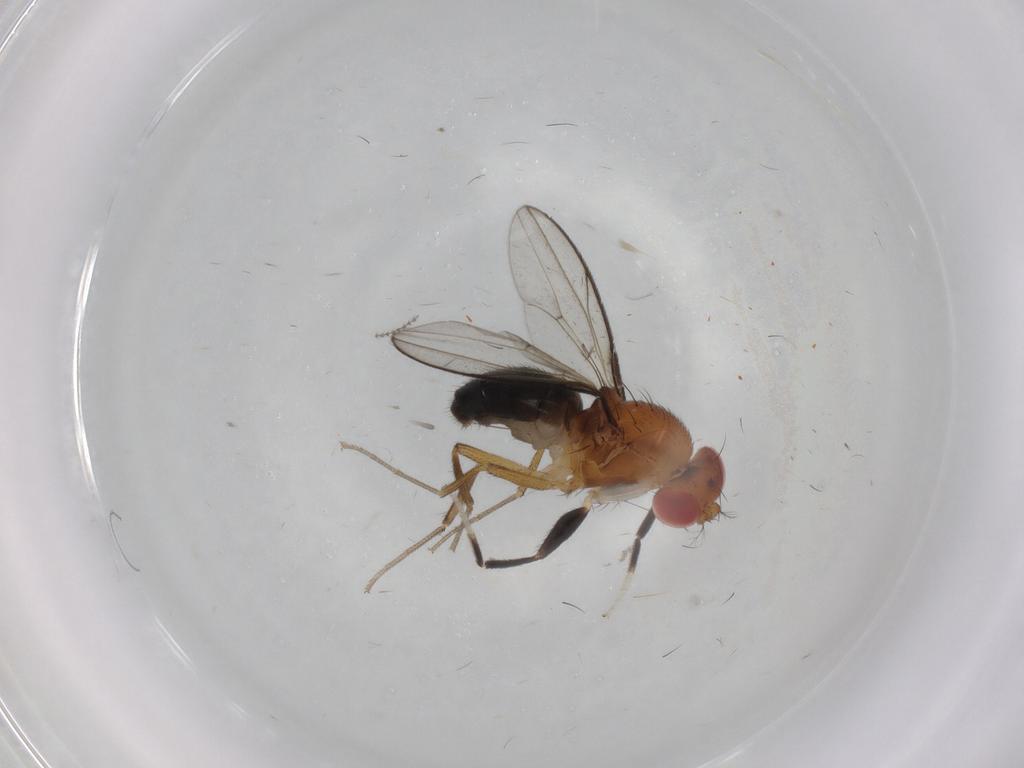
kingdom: Animalia
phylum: Arthropoda
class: Insecta
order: Diptera
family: Drosophilidae
